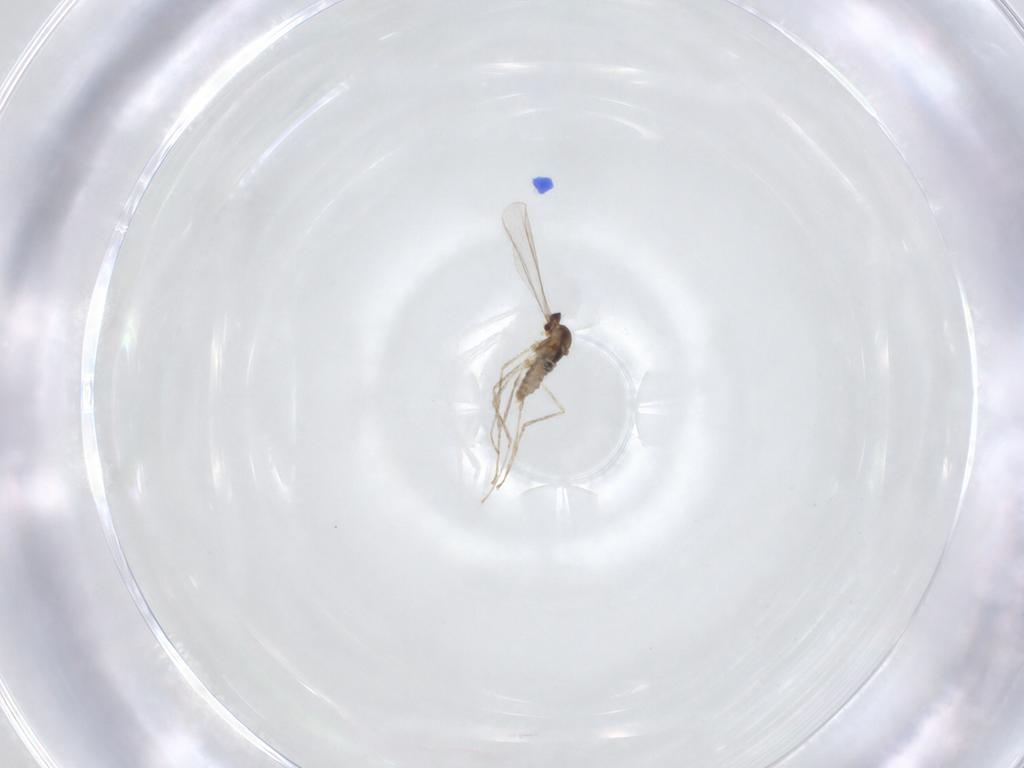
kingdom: Animalia
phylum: Arthropoda
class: Insecta
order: Diptera
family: Cecidomyiidae
